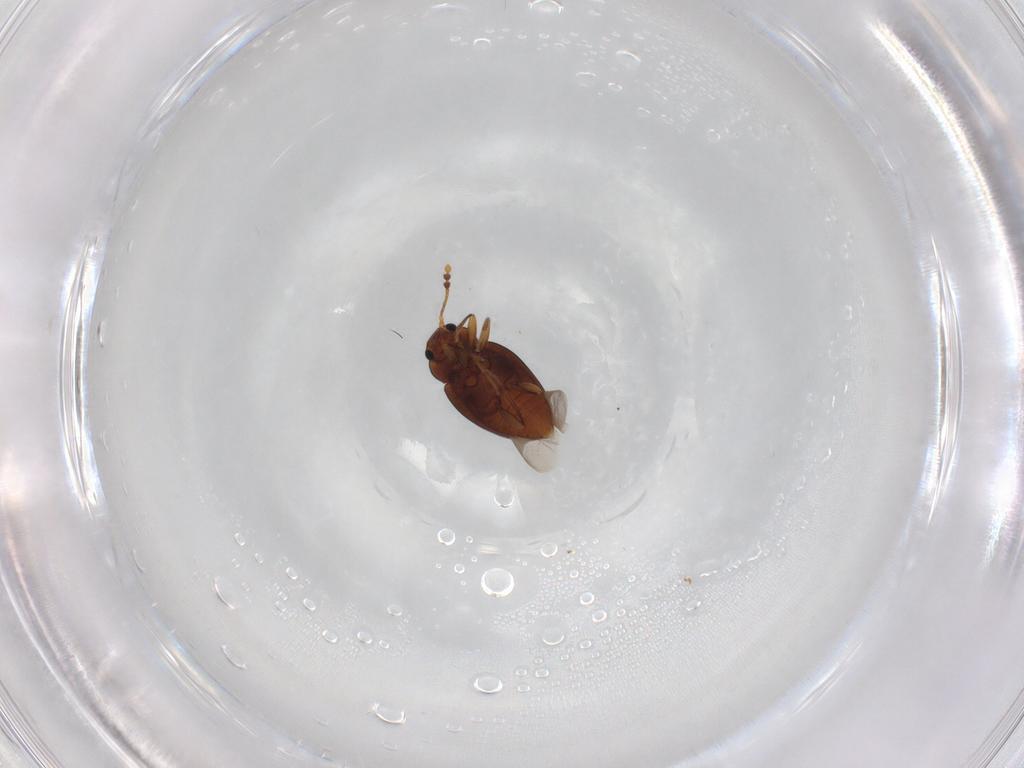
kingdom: Animalia
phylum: Arthropoda
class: Insecta
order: Coleoptera
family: Erotylidae
